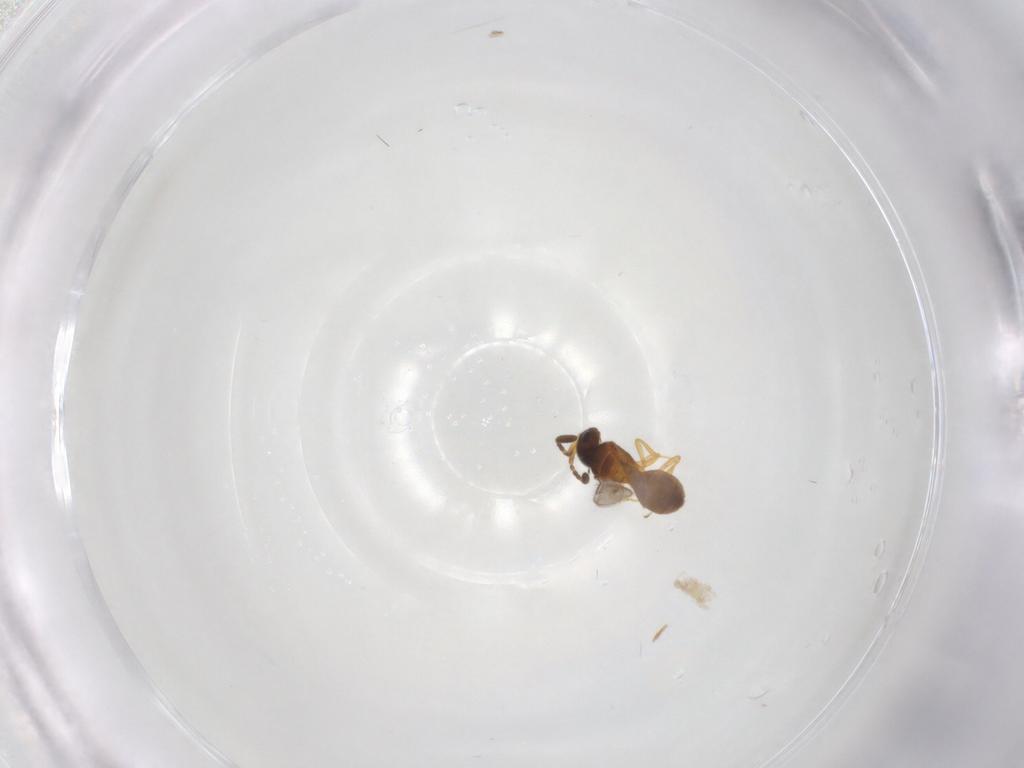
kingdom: Animalia
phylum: Arthropoda
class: Insecta
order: Hymenoptera
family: Scelionidae
